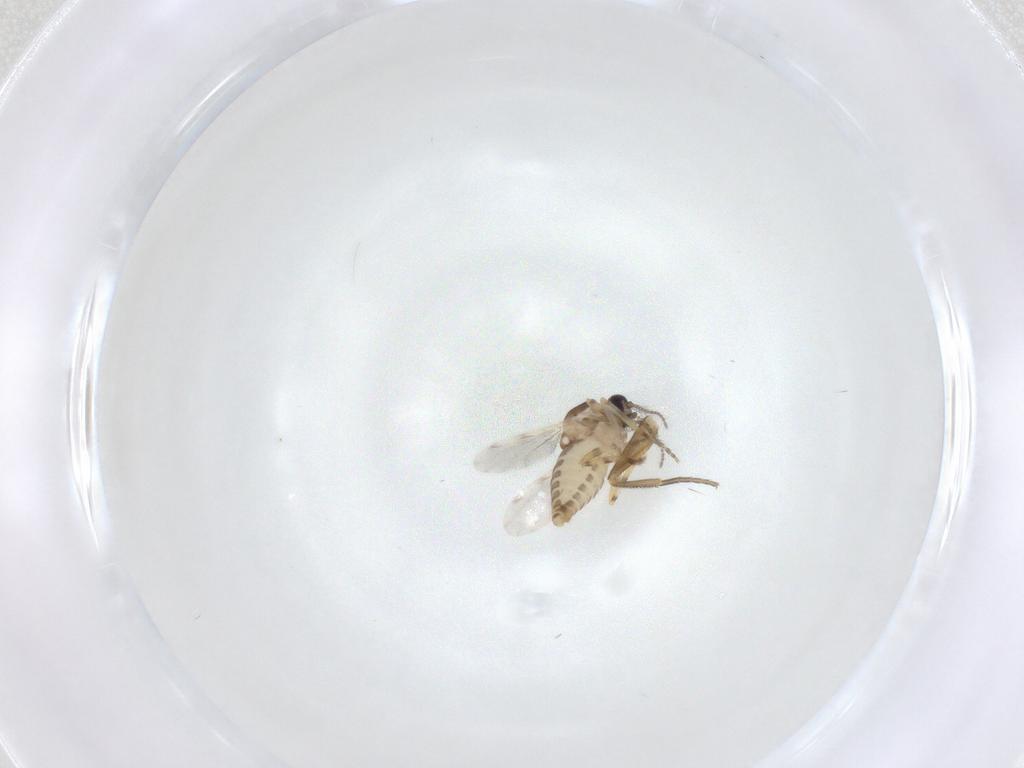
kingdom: Animalia
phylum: Arthropoda
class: Insecta
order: Diptera
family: Ceratopogonidae
